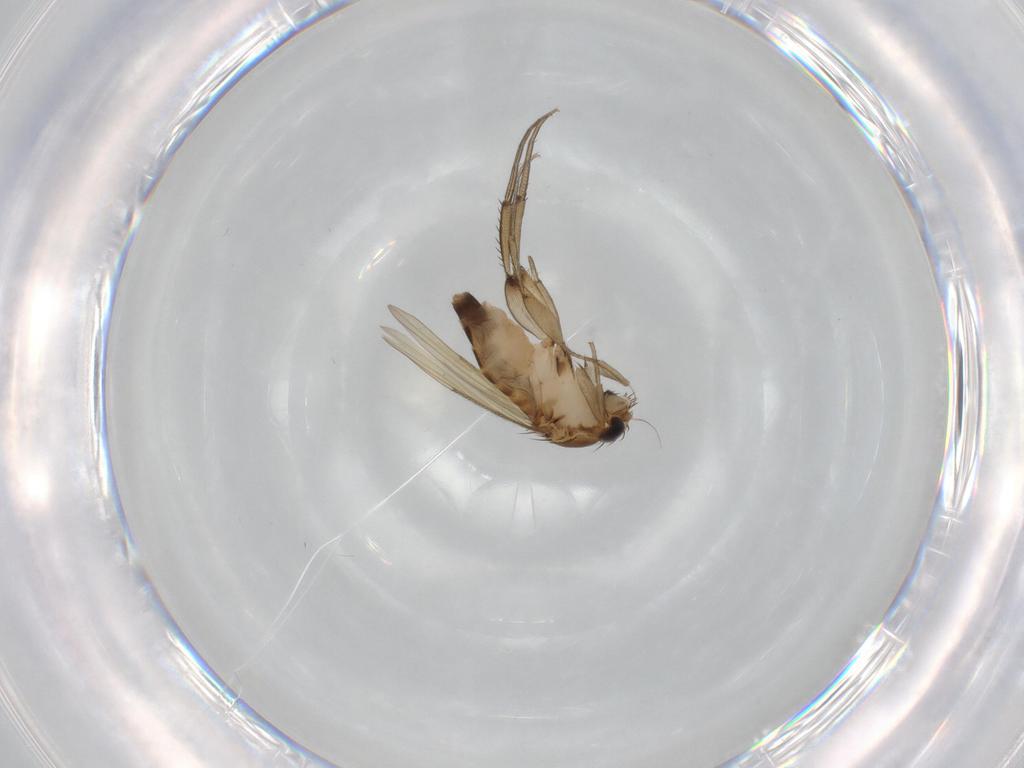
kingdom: Animalia
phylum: Arthropoda
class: Insecta
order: Diptera
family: Phoridae
